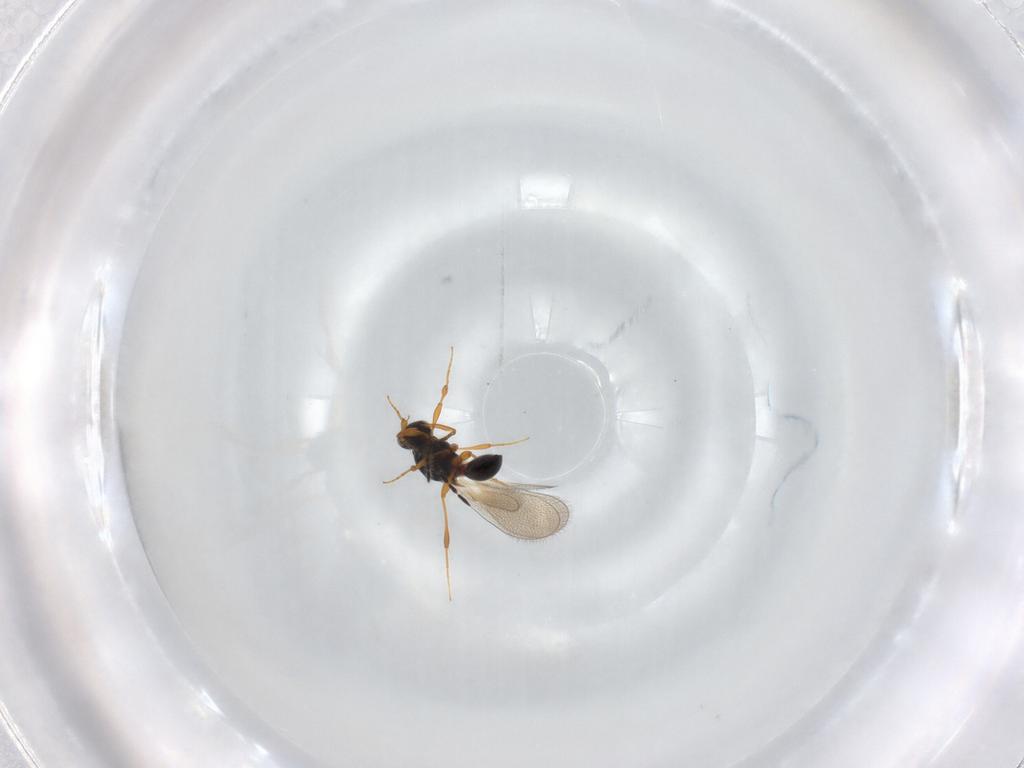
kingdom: Animalia
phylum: Arthropoda
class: Insecta
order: Hymenoptera
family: Platygastridae
